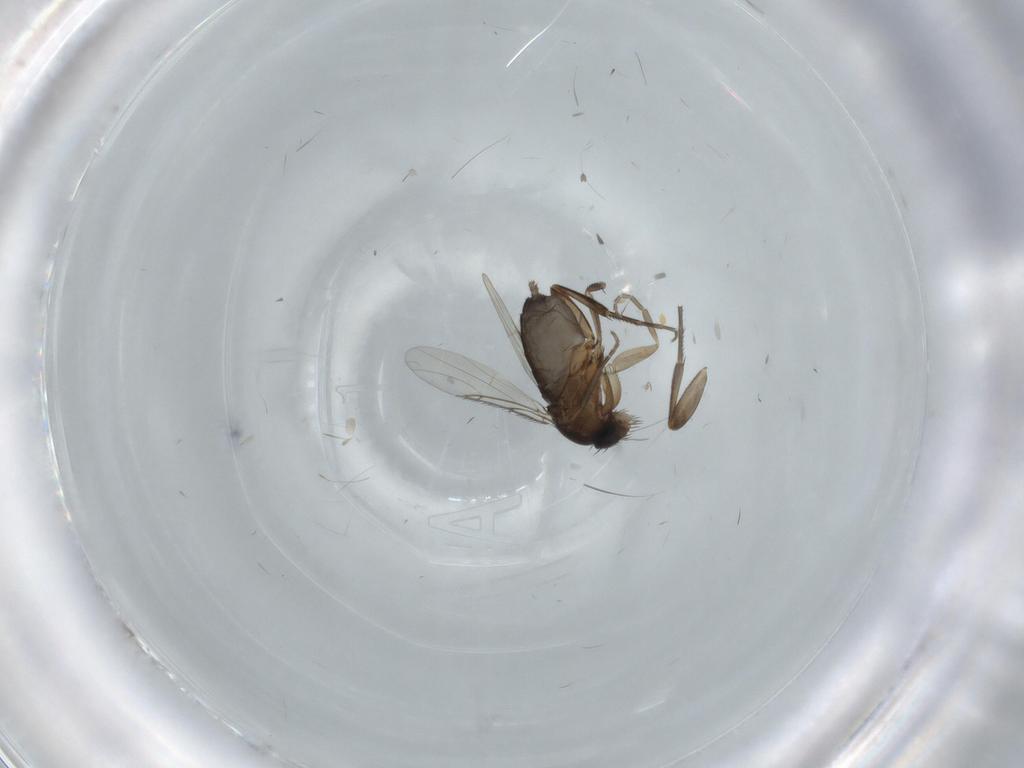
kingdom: Animalia
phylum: Arthropoda
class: Insecta
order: Diptera
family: Phoridae
